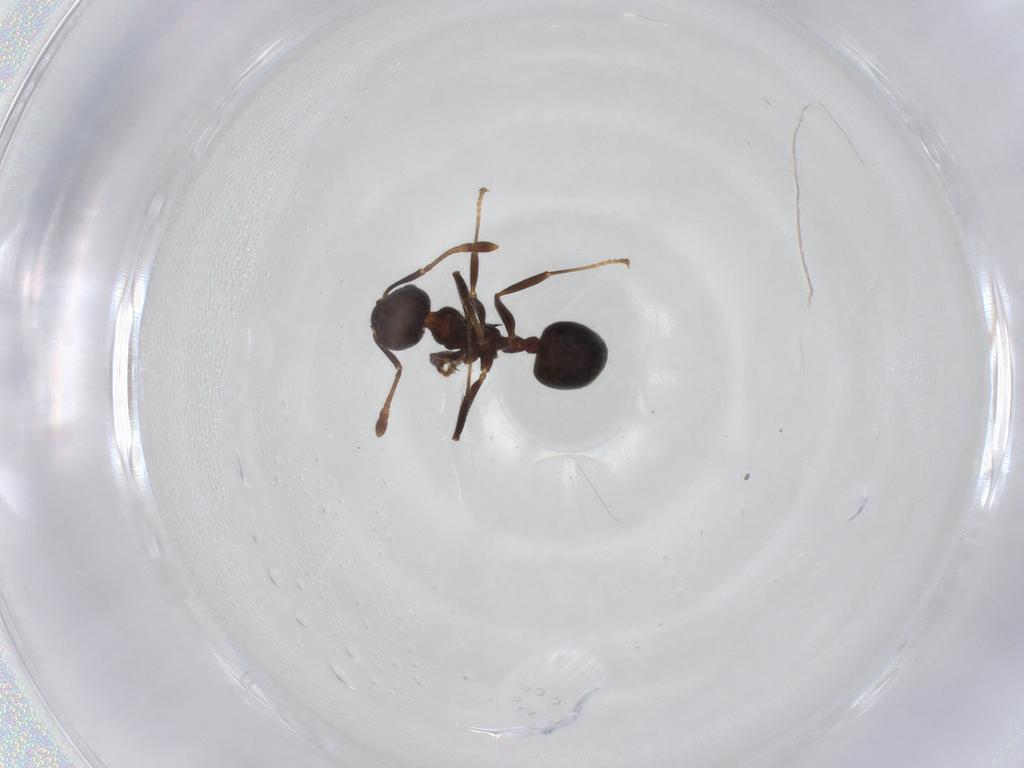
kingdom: Animalia
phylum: Arthropoda
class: Insecta
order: Hymenoptera
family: Formicidae
